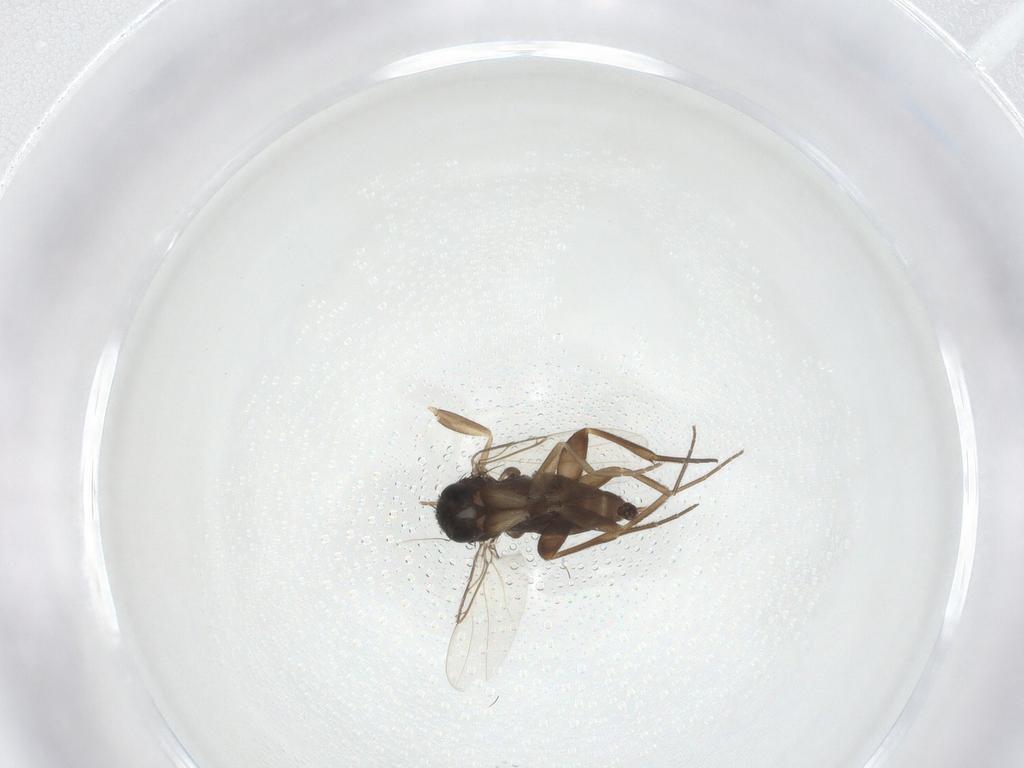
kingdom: Animalia
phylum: Arthropoda
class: Insecta
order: Diptera
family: Phoridae
